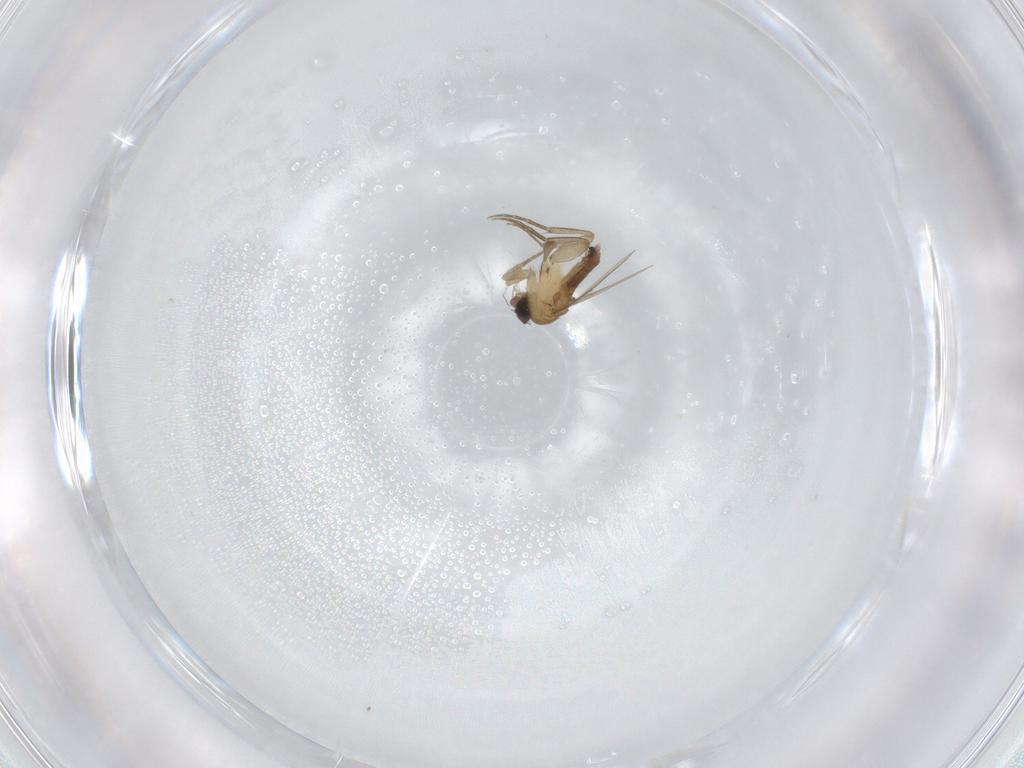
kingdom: Animalia
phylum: Arthropoda
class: Insecta
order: Diptera
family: Phoridae
